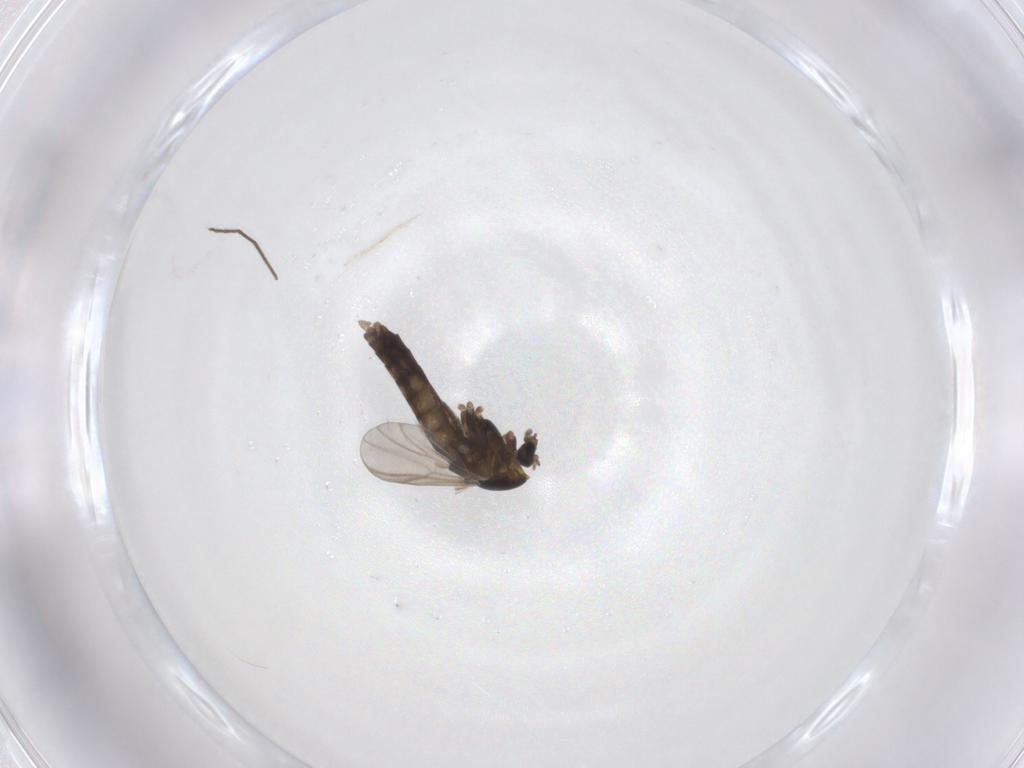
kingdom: Animalia
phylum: Arthropoda
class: Insecta
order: Diptera
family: Chironomidae
